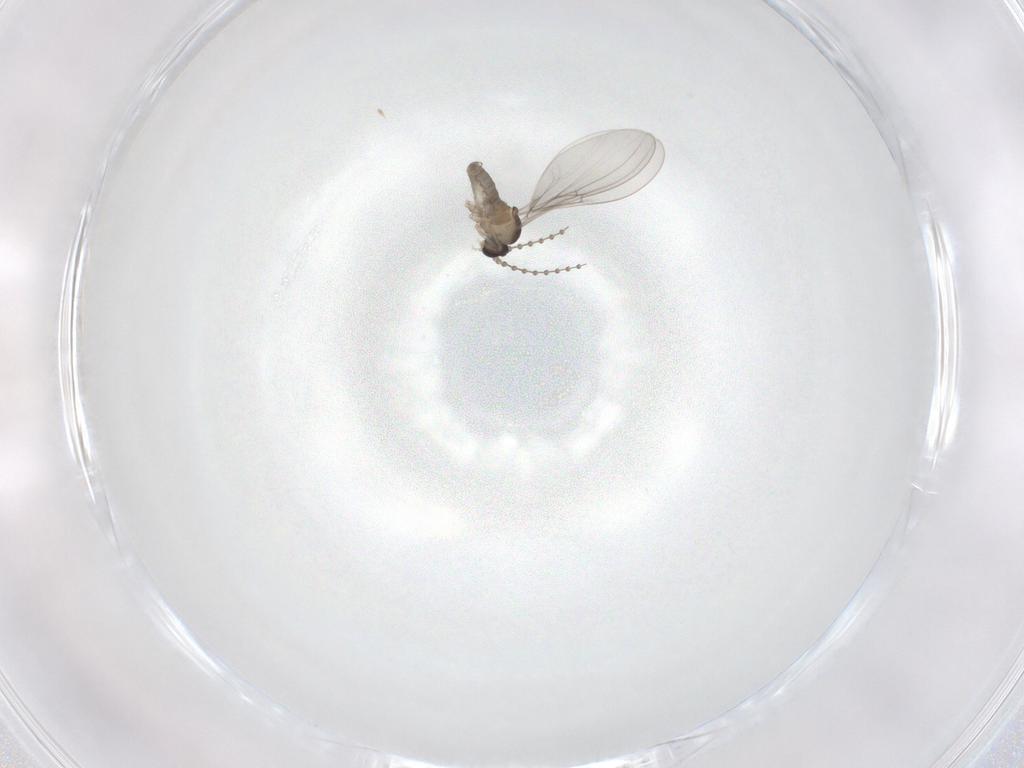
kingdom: Animalia
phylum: Arthropoda
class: Insecta
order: Diptera
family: Cecidomyiidae
